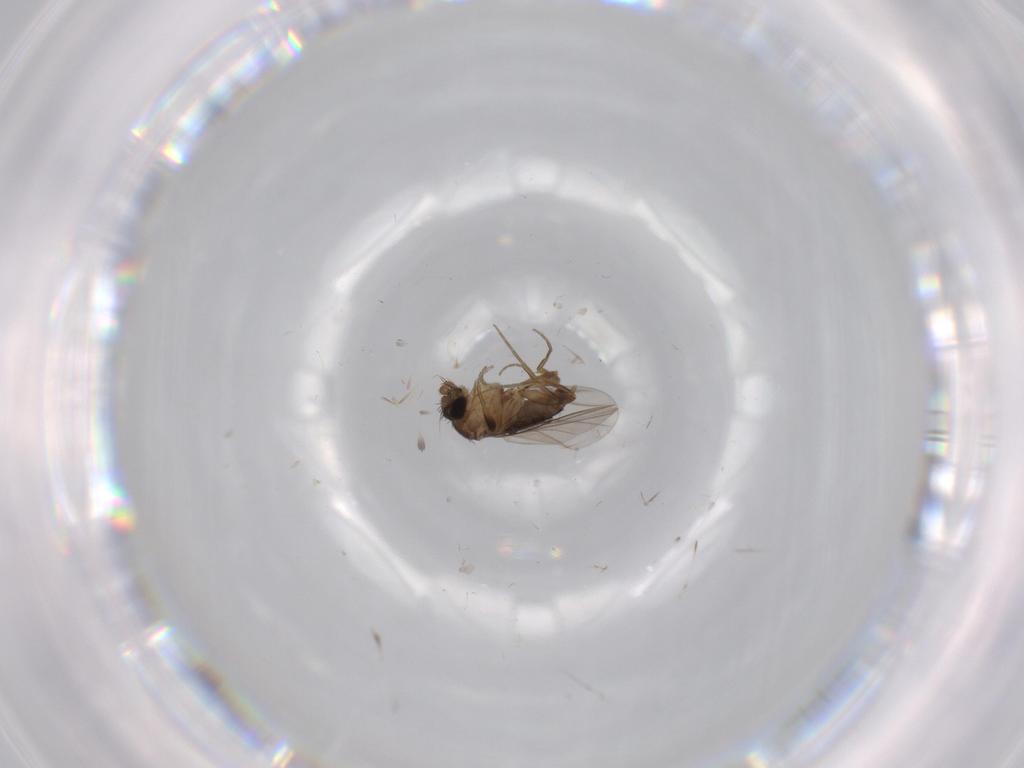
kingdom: Animalia
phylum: Arthropoda
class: Insecta
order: Diptera
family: Phoridae
